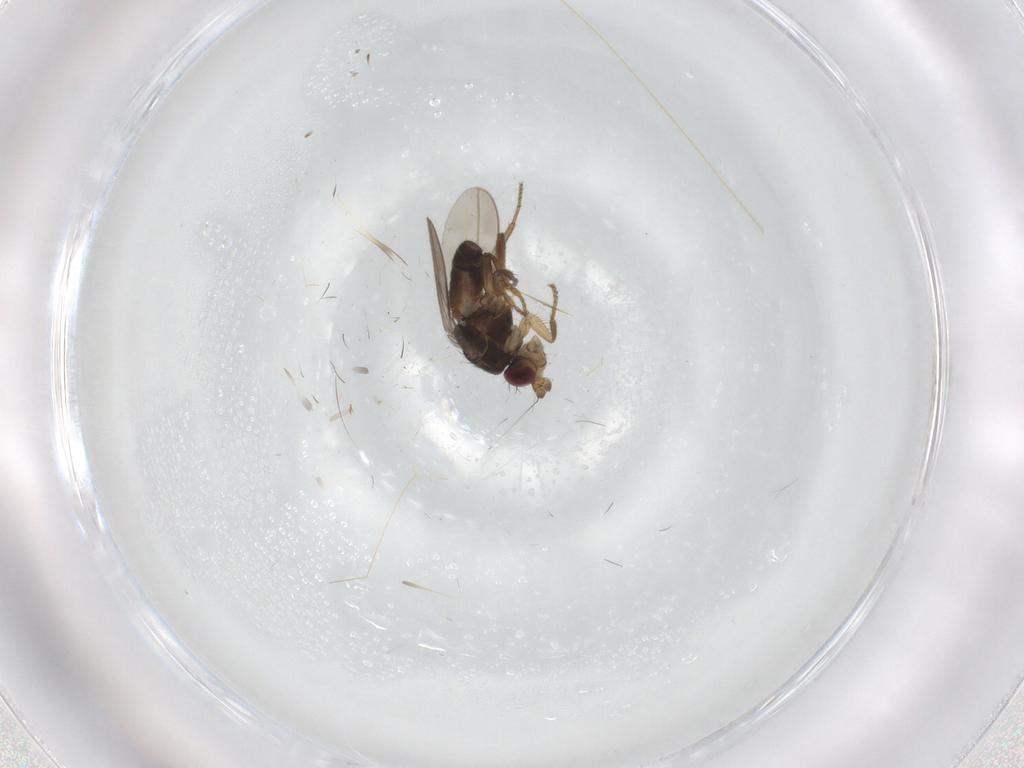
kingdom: Animalia
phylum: Arthropoda
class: Insecta
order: Diptera
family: Sphaeroceridae
